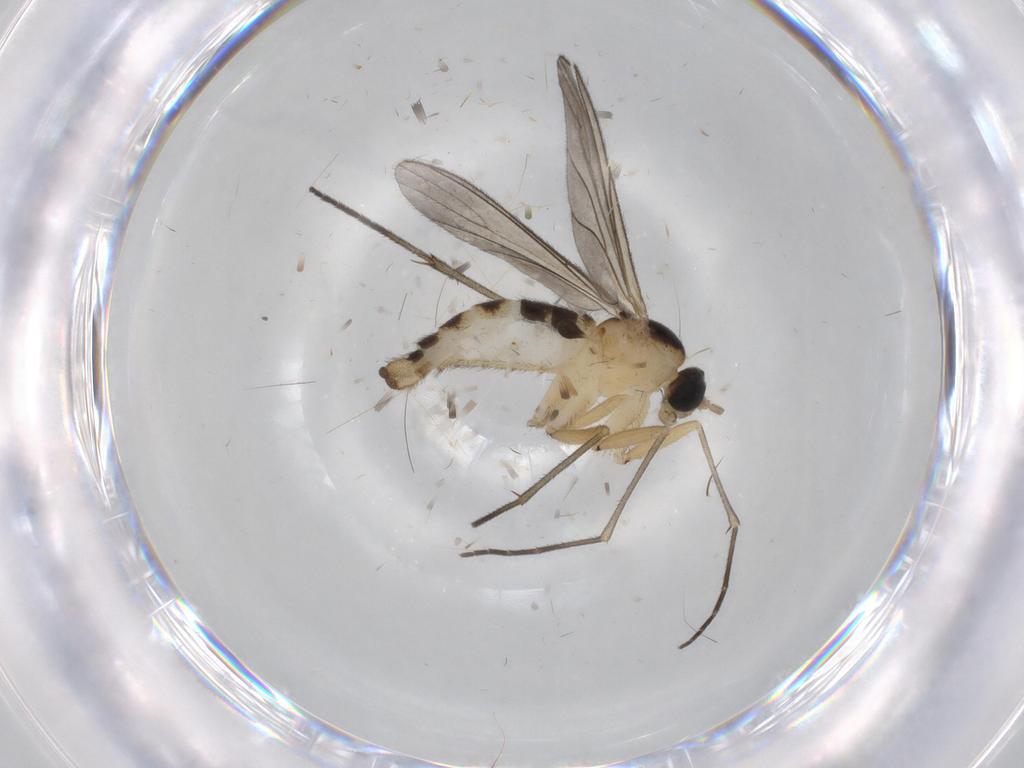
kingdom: Animalia
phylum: Arthropoda
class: Insecta
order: Diptera
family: Sciaridae
